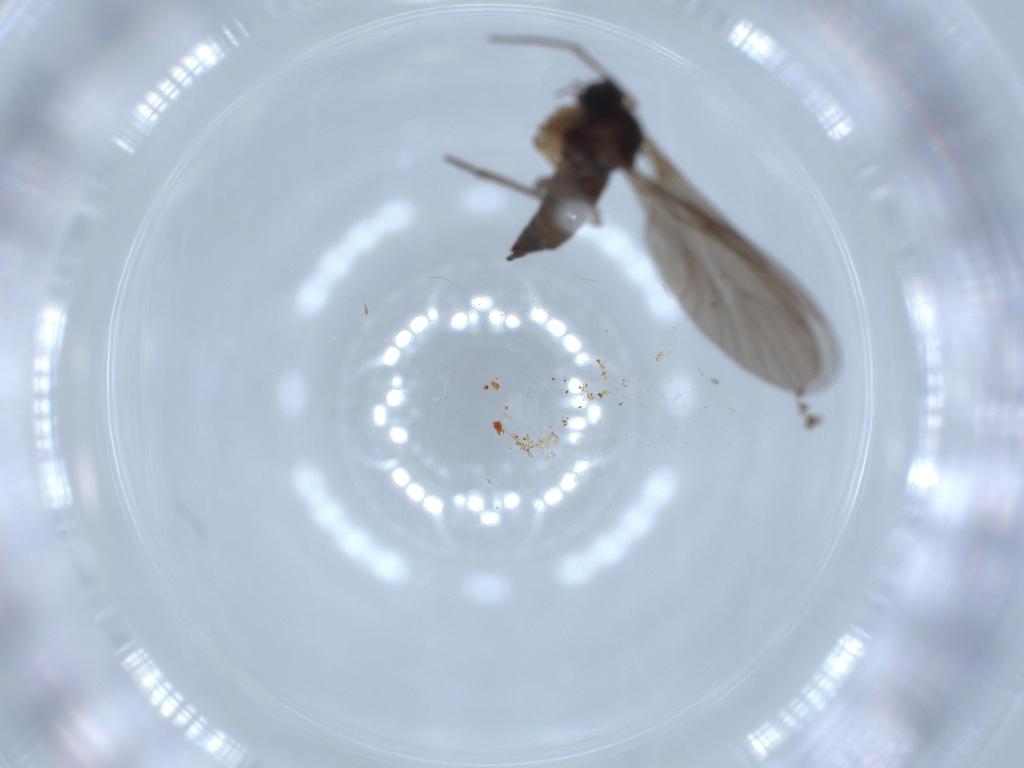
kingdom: Animalia
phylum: Arthropoda
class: Insecta
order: Diptera
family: Sciaridae
